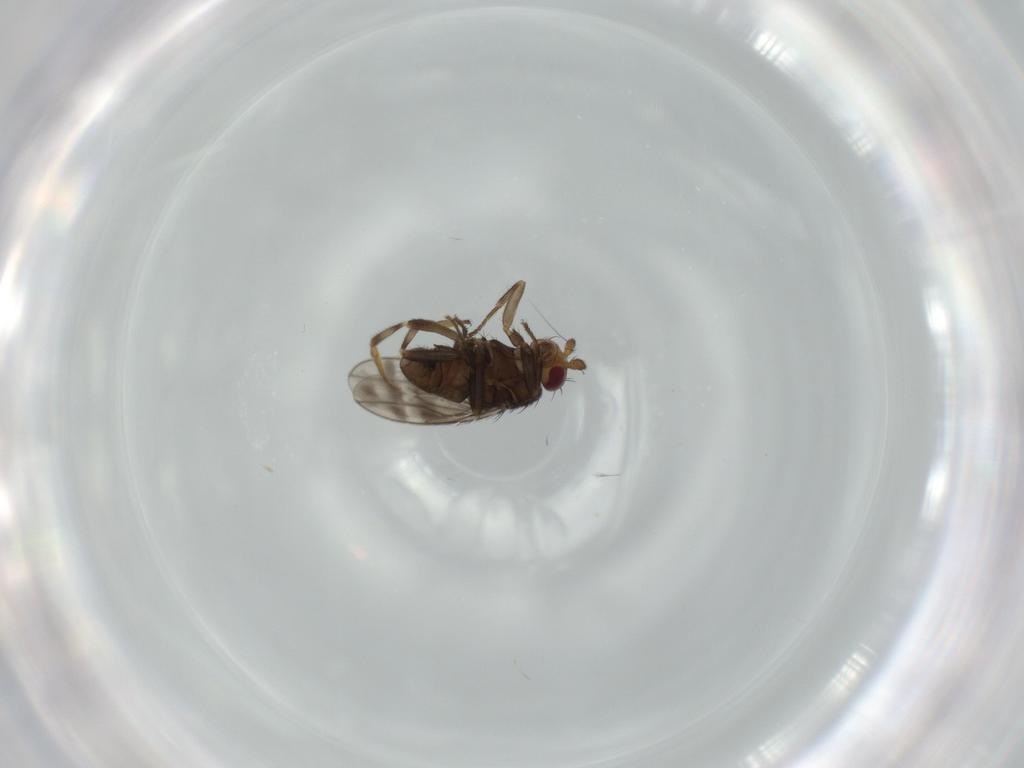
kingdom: Animalia
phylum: Arthropoda
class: Insecta
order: Diptera
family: Sphaeroceridae
